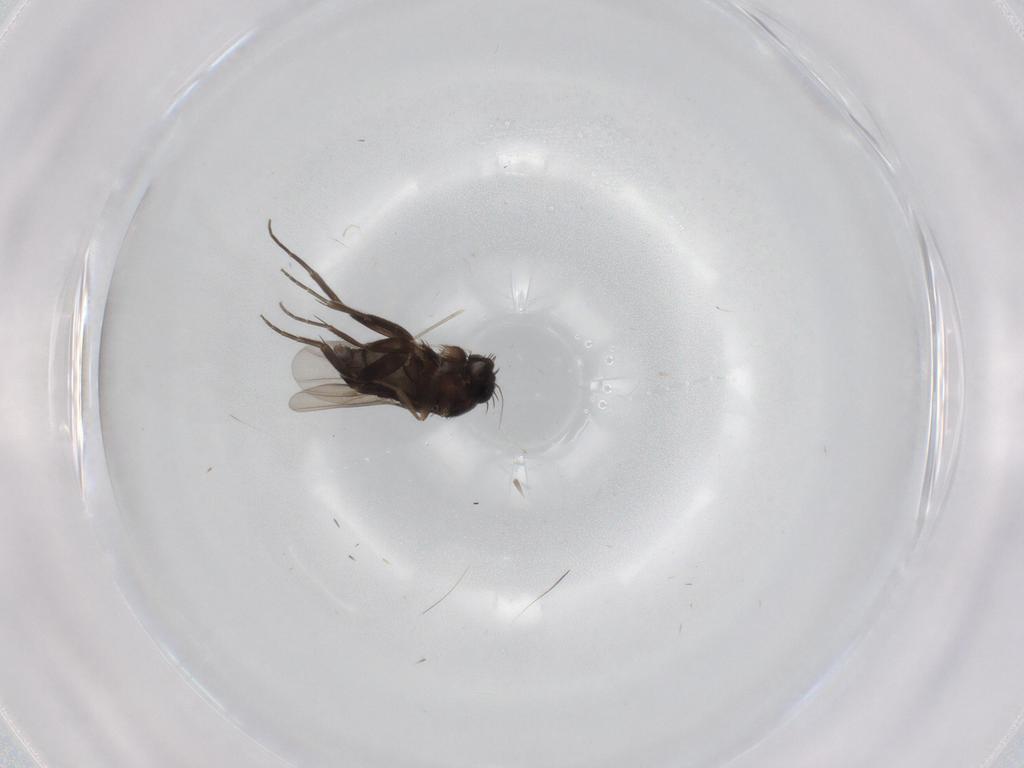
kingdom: Animalia
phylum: Arthropoda
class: Insecta
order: Diptera
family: Phoridae
